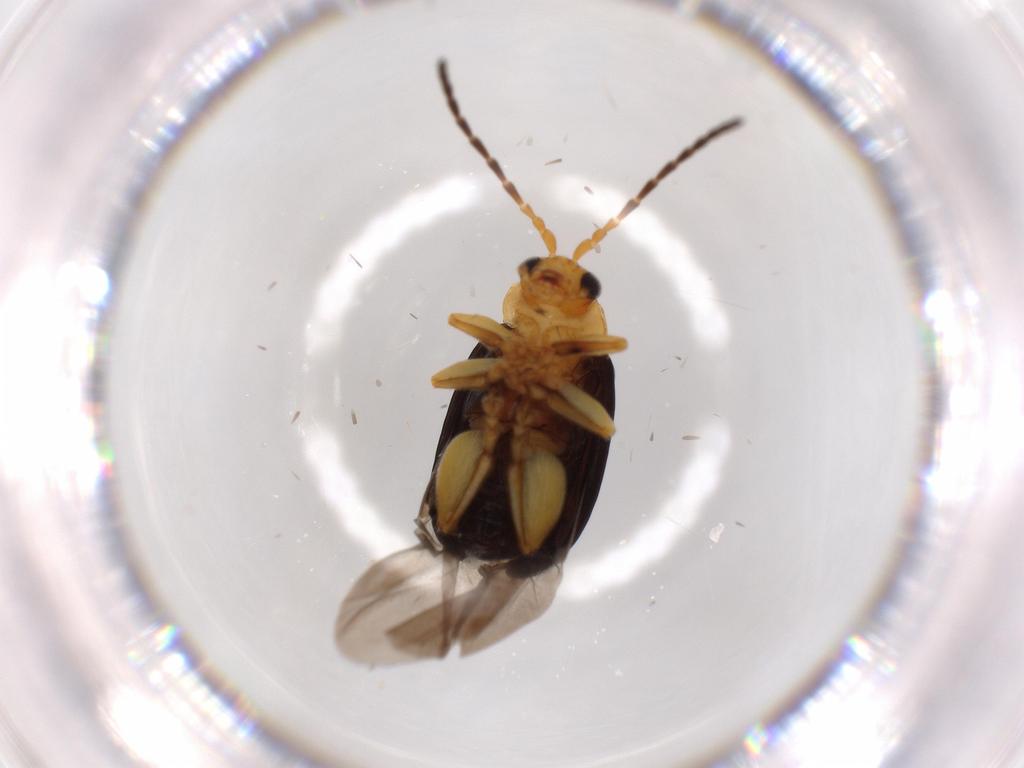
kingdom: Animalia
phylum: Arthropoda
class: Insecta
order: Coleoptera
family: Chrysomelidae
